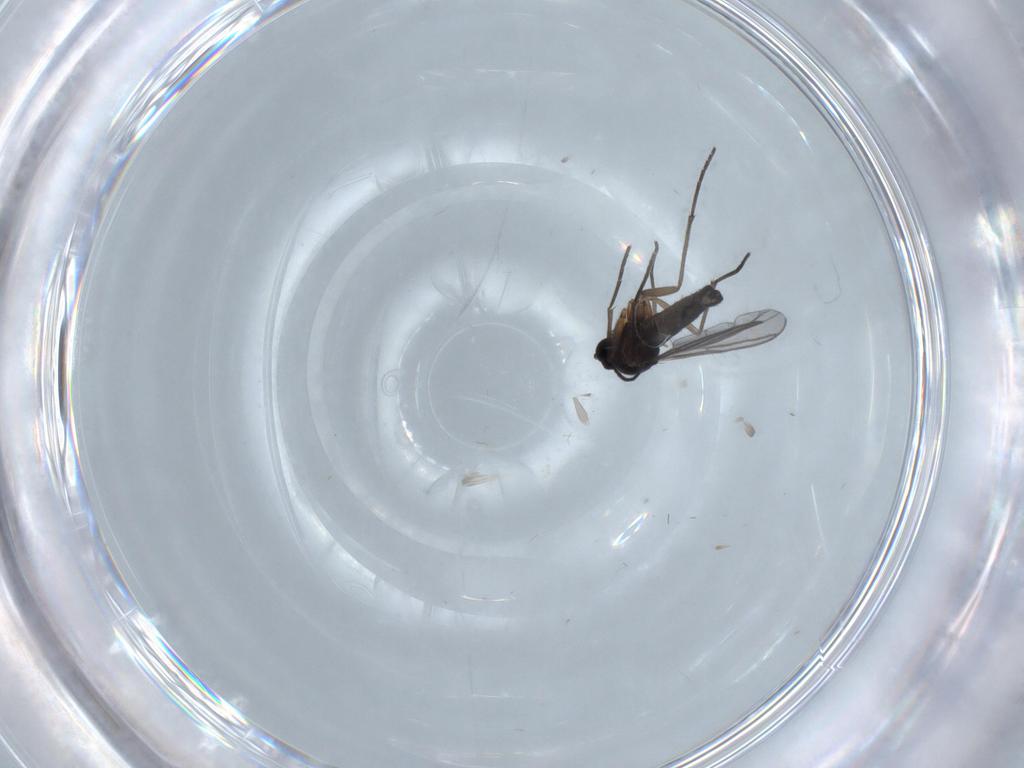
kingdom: Animalia
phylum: Arthropoda
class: Insecta
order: Diptera
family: Sciaridae
